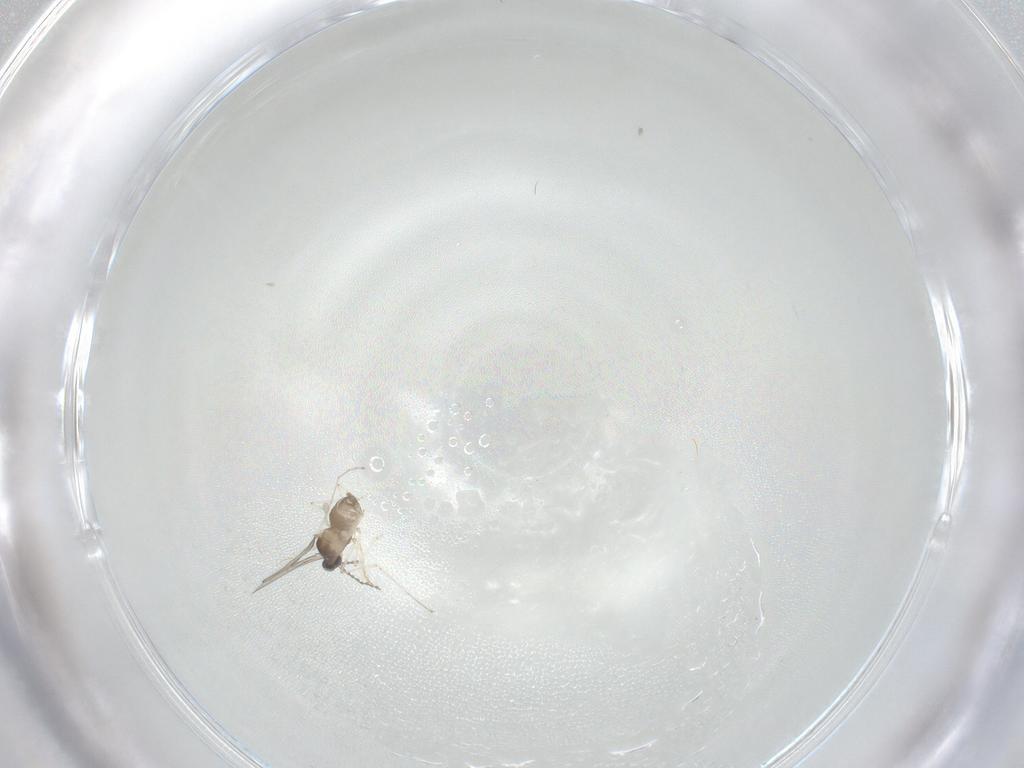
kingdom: Animalia
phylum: Arthropoda
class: Insecta
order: Diptera
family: Chironomidae
